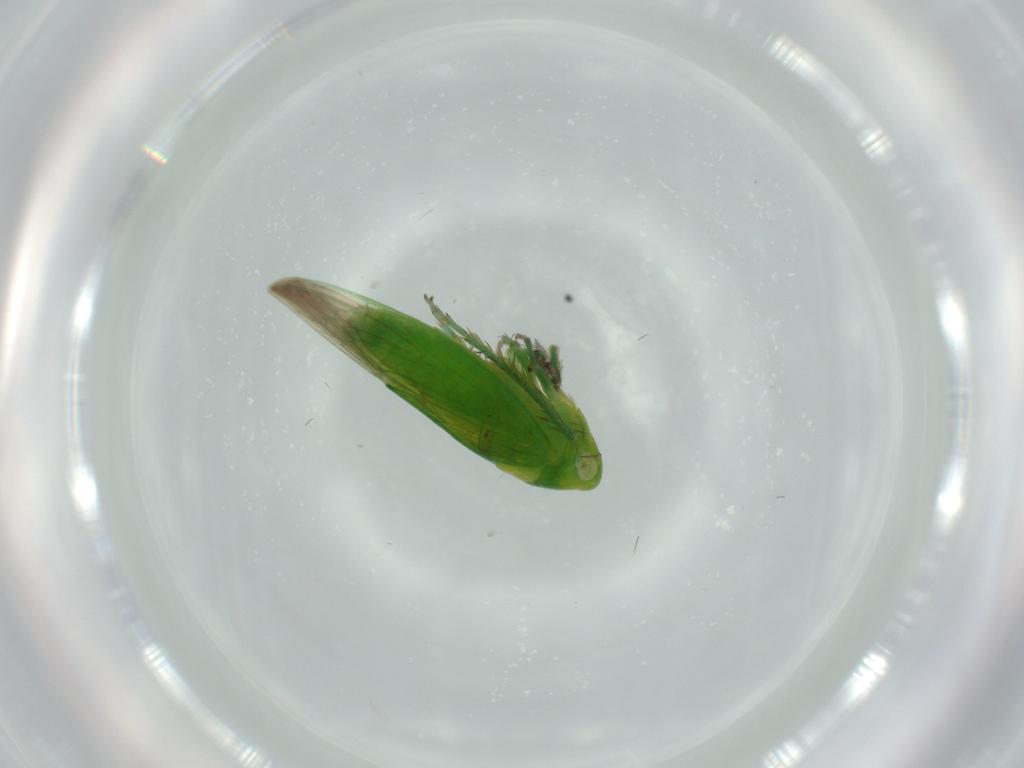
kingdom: Animalia
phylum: Arthropoda
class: Insecta
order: Hemiptera
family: Cicadellidae
